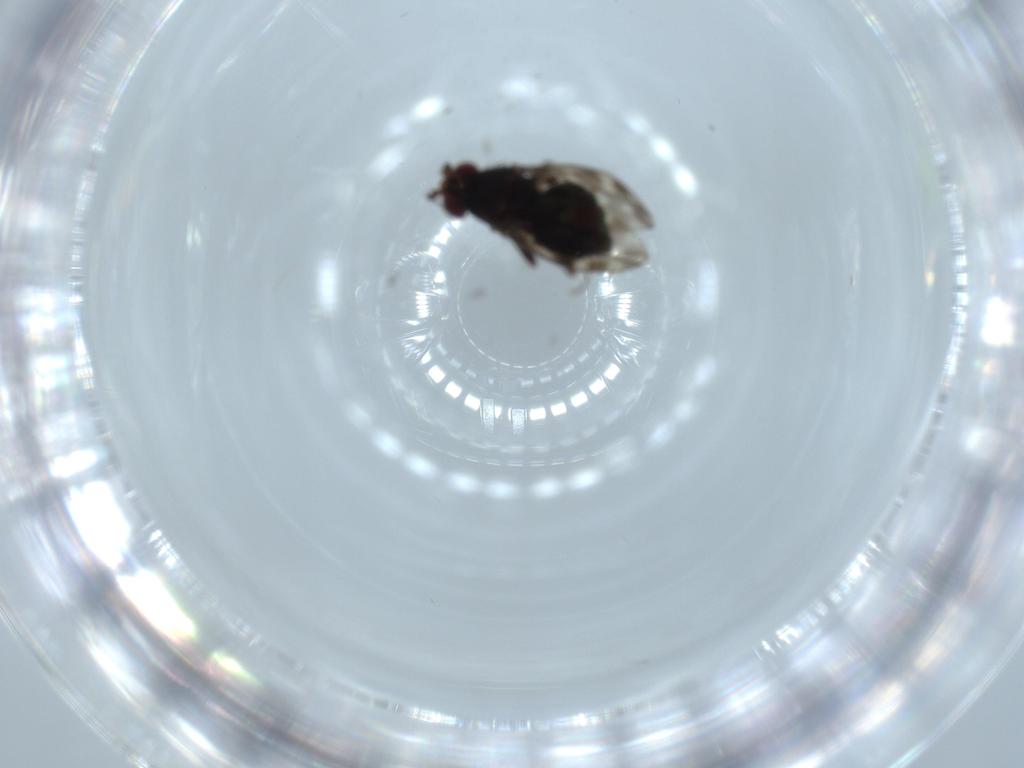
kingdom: Animalia
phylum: Arthropoda
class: Insecta
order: Diptera
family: Sphaeroceridae
